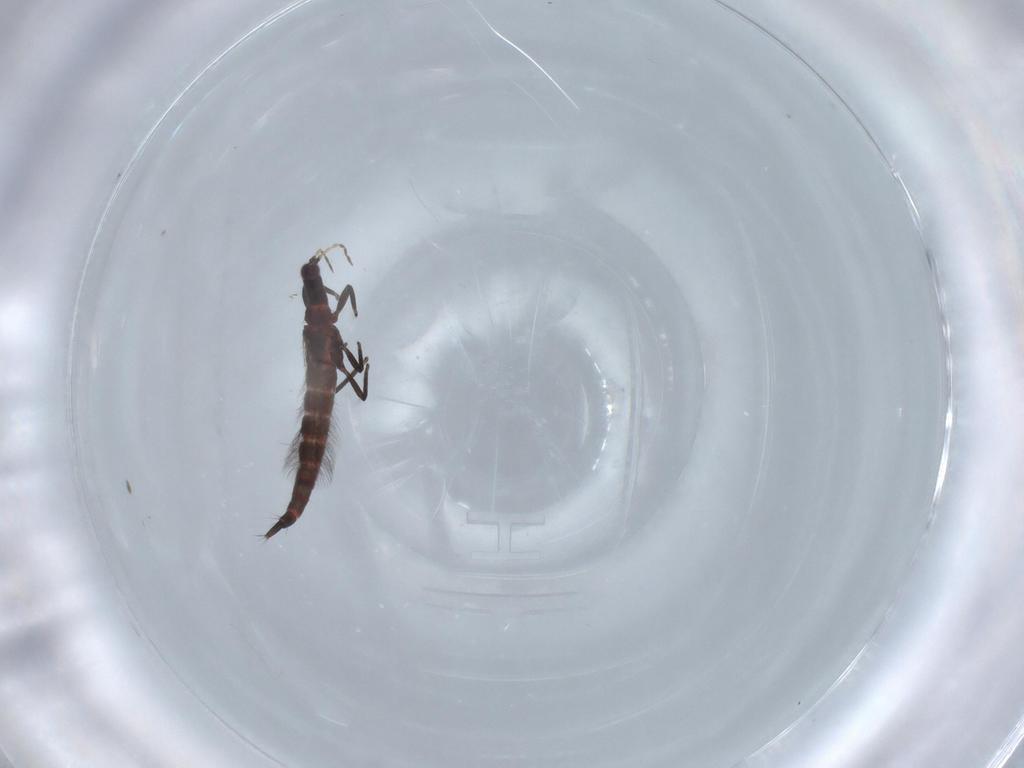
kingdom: Animalia
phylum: Arthropoda
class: Insecta
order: Thysanoptera
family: Phlaeothripidae
